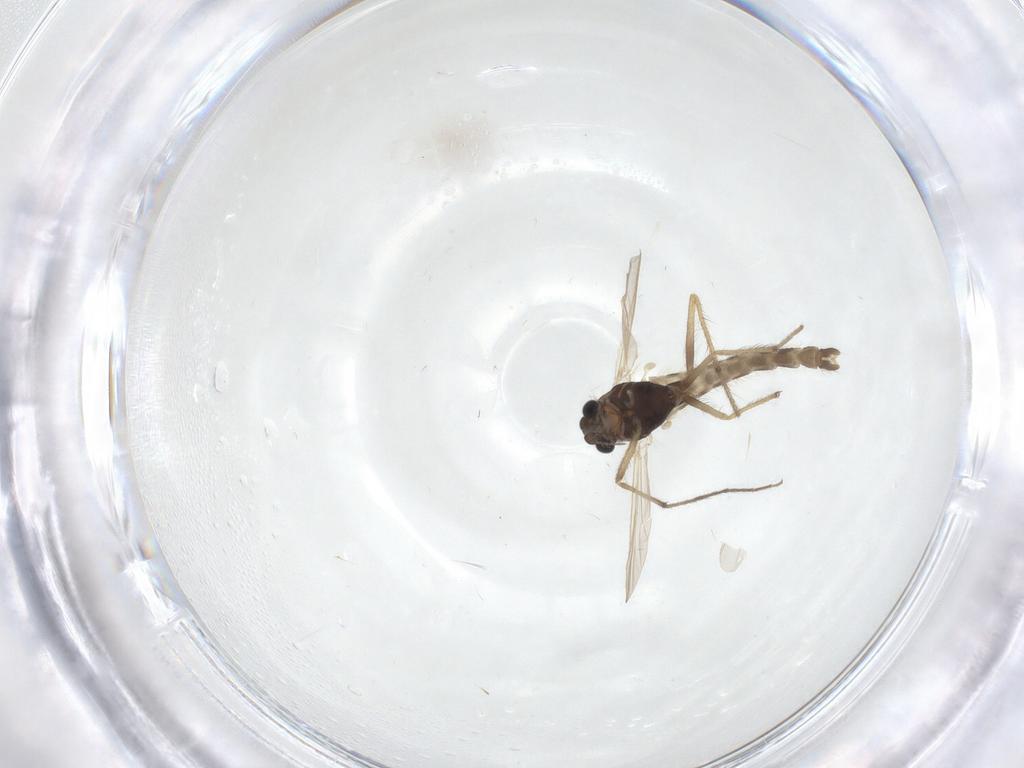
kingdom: Animalia
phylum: Arthropoda
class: Insecta
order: Diptera
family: Chironomidae
